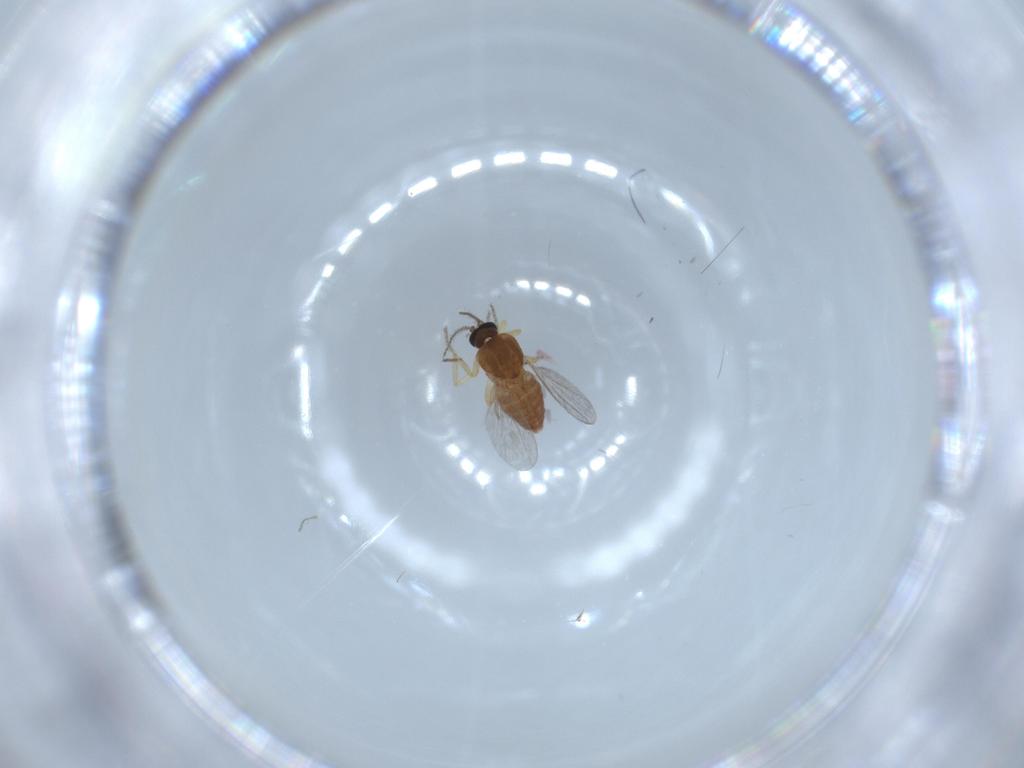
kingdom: Animalia
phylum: Arthropoda
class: Insecta
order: Diptera
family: Ceratopogonidae
